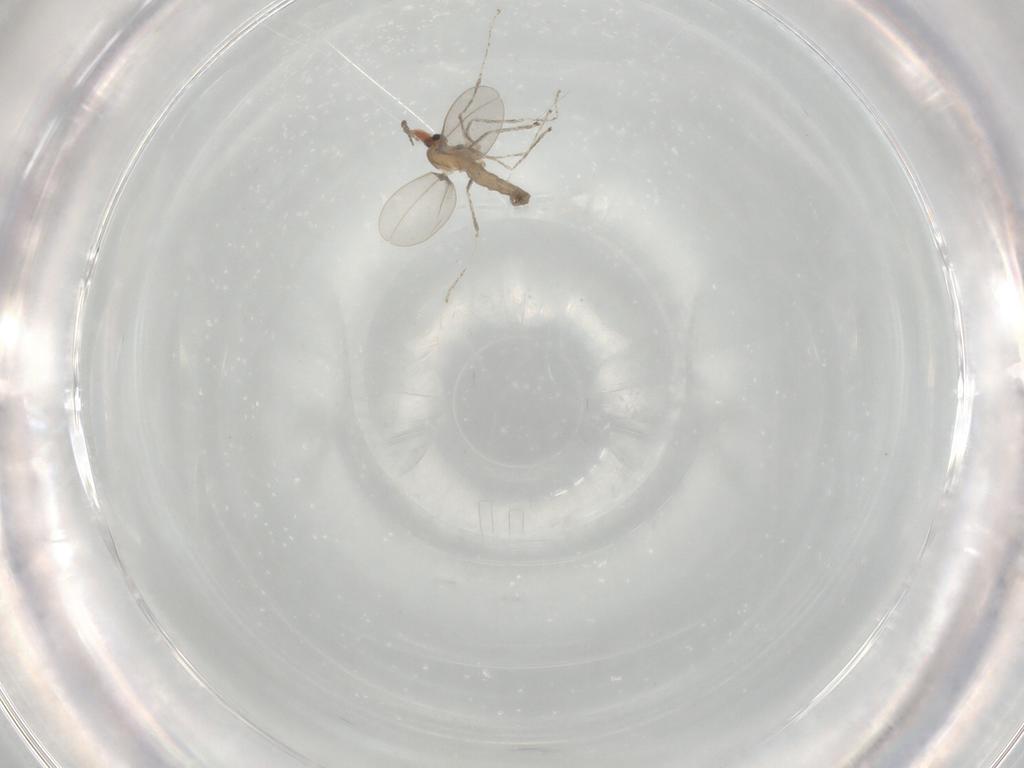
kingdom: Animalia
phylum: Arthropoda
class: Insecta
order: Diptera
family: Cecidomyiidae
